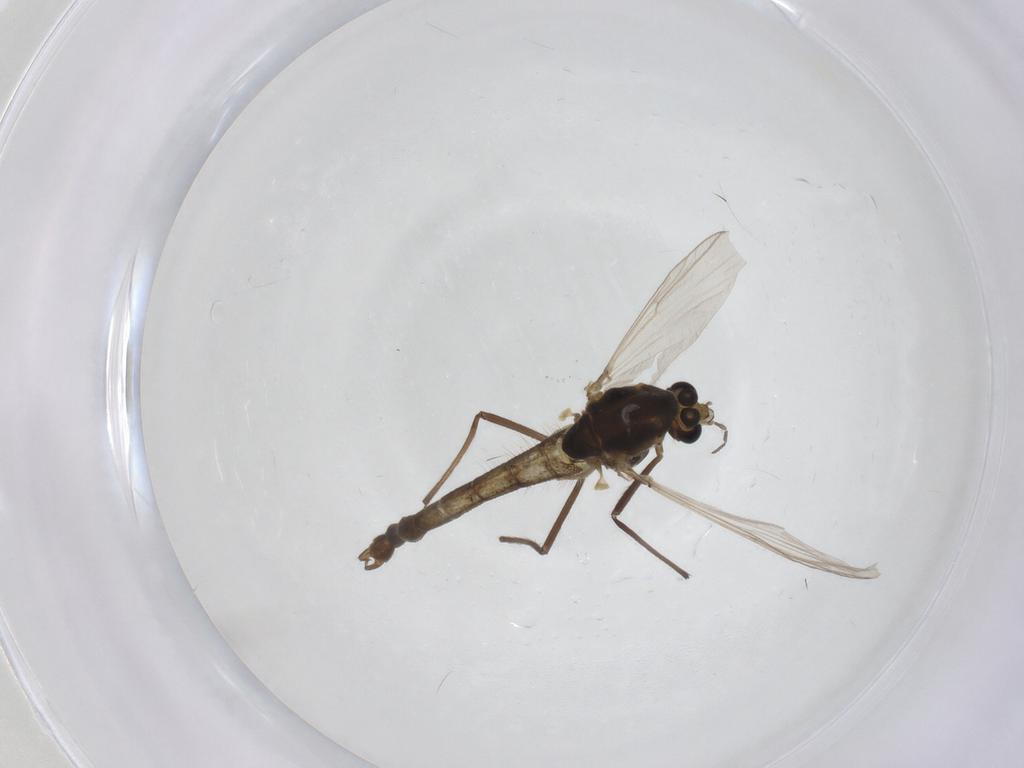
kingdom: Animalia
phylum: Arthropoda
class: Insecta
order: Diptera
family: Chironomidae
